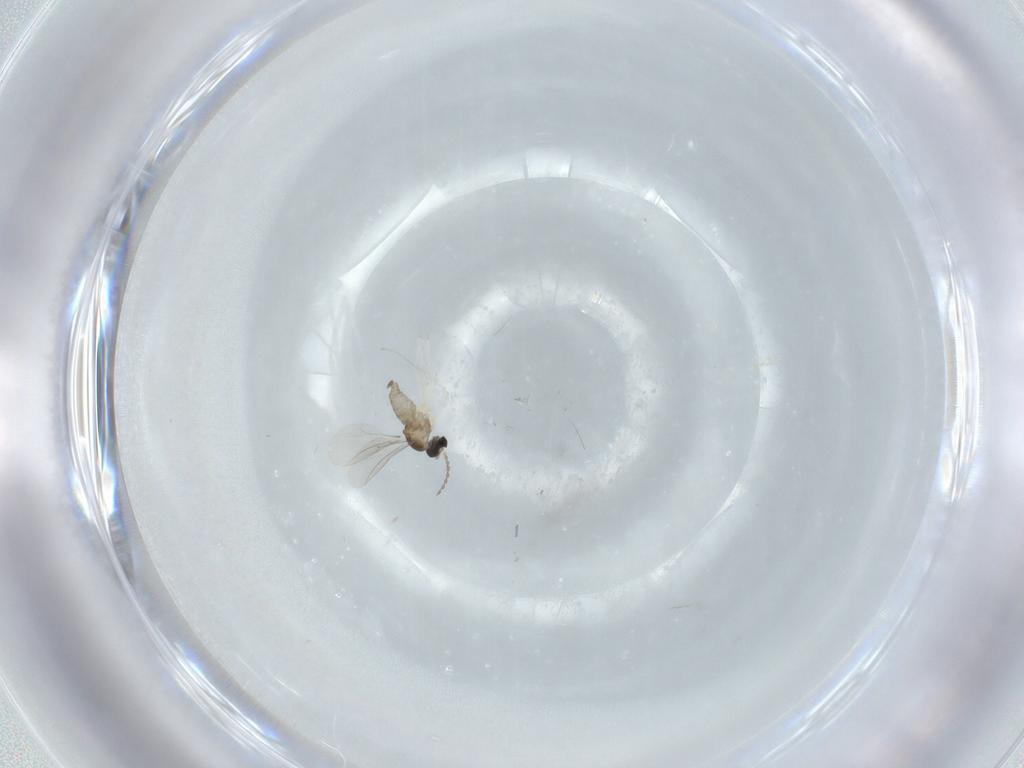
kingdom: Animalia
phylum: Arthropoda
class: Insecta
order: Diptera
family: Cecidomyiidae
